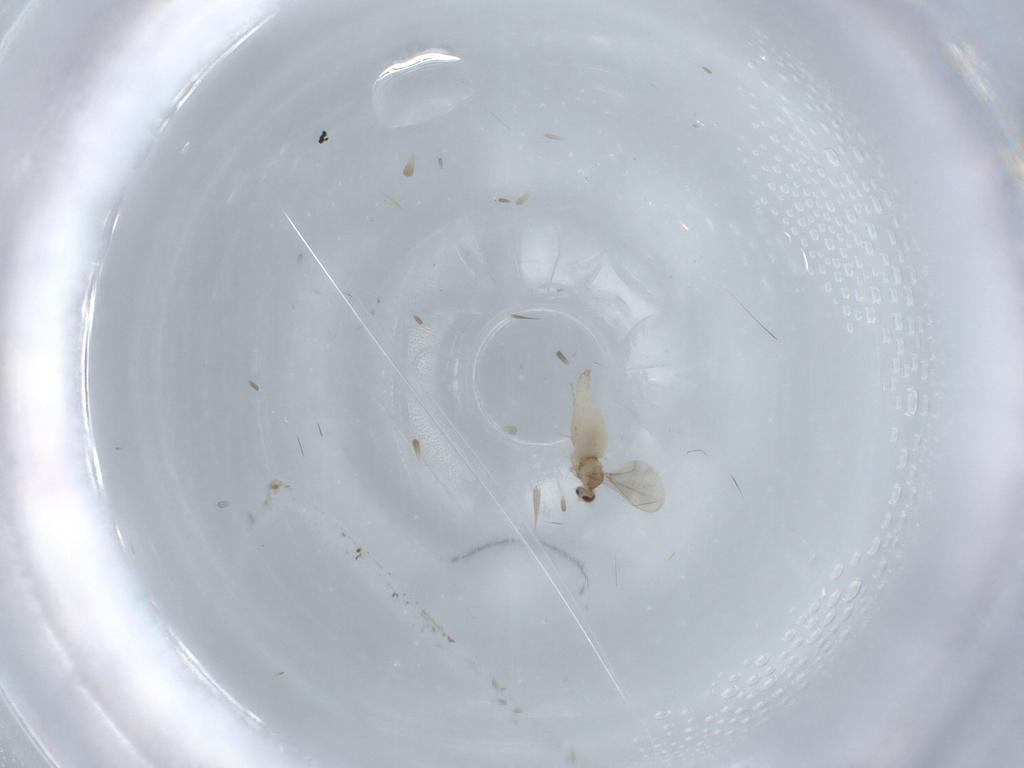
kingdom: Animalia
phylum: Arthropoda
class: Insecta
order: Diptera
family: Cecidomyiidae
